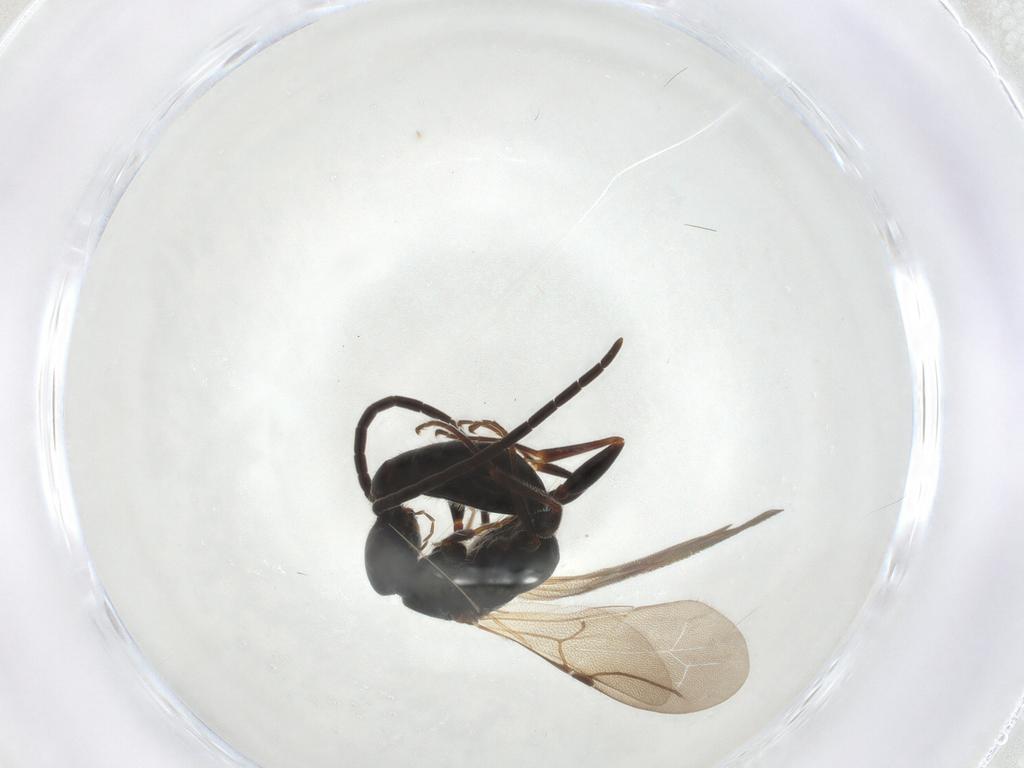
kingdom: Animalia
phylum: Arthropoda
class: Insecta
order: Hymenoptera
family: Bethylidae
